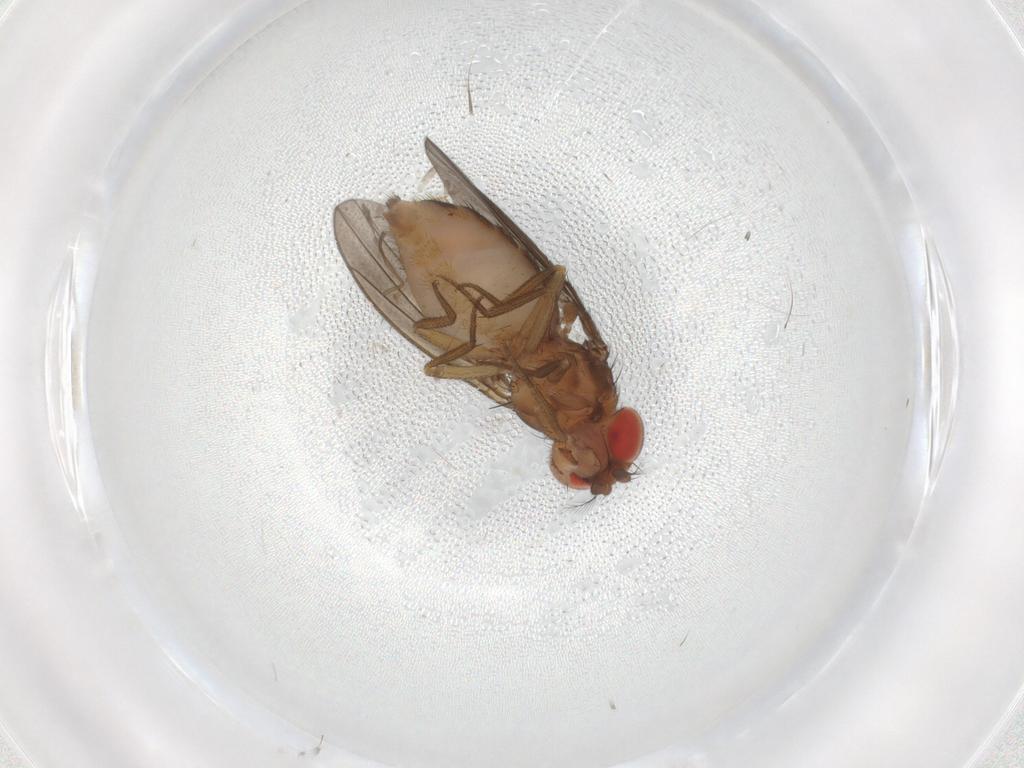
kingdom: Animalia
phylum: Arthropoda
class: Insecta
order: Diptera
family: Drosophilidae
